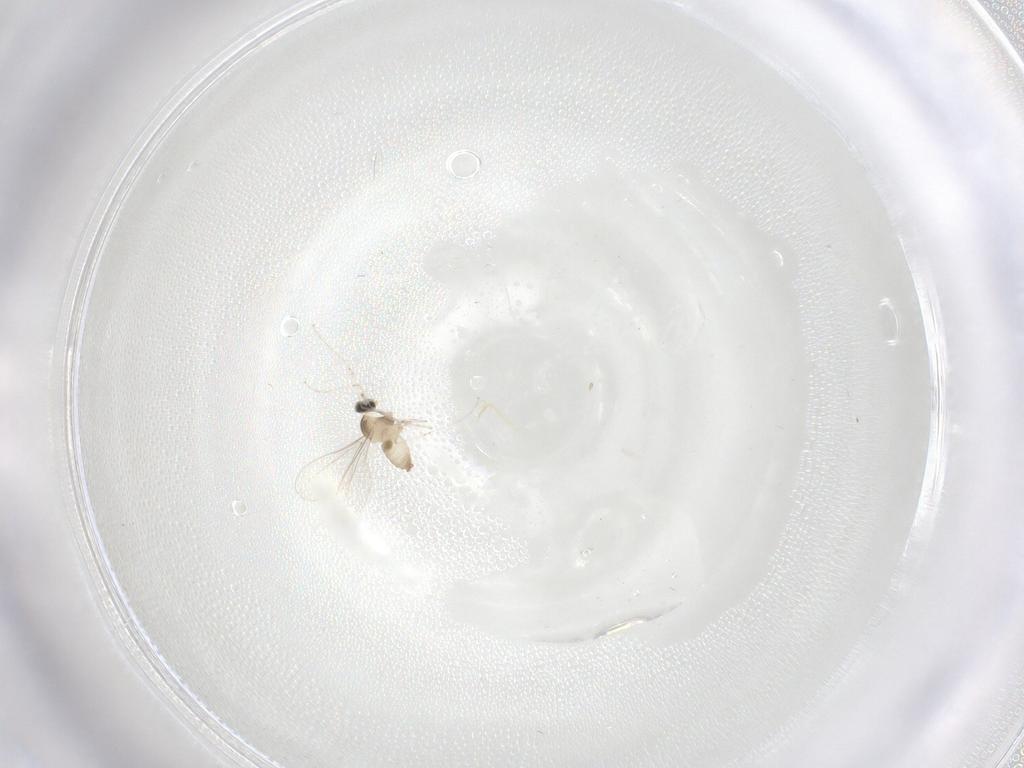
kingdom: Animalia
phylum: Arthropoda
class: Insecta
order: Diptera
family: Cecidomyiidae
